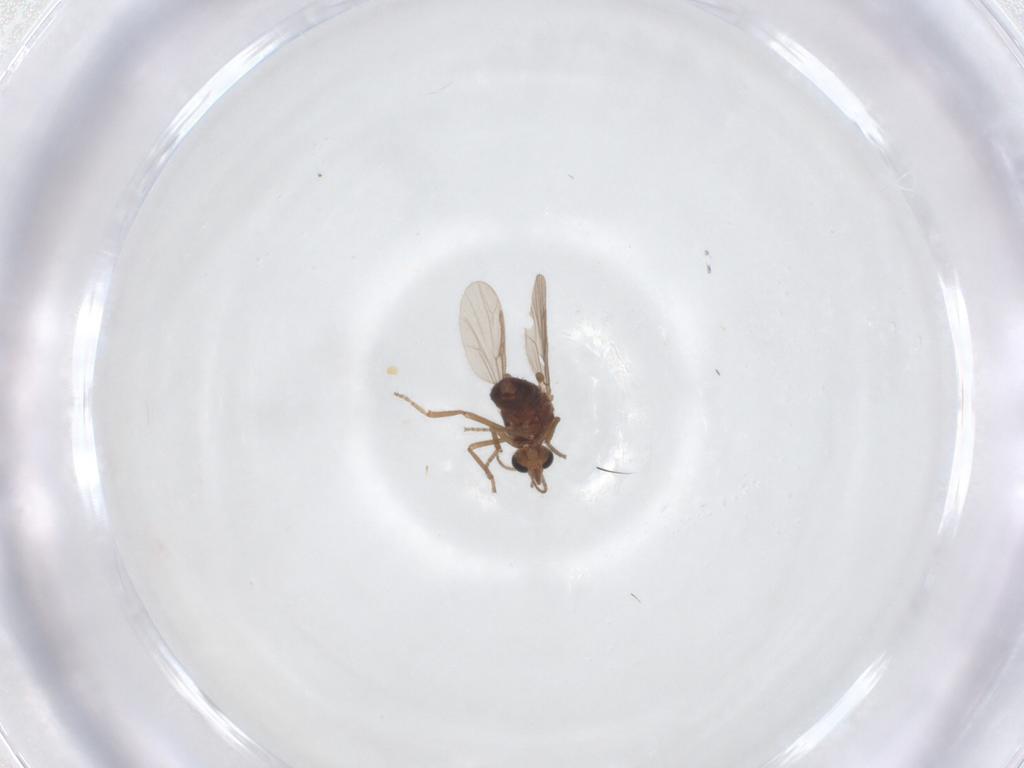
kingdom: Animalia
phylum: Arthropoda
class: Insecta
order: Diptera
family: Ceratopogonidae
